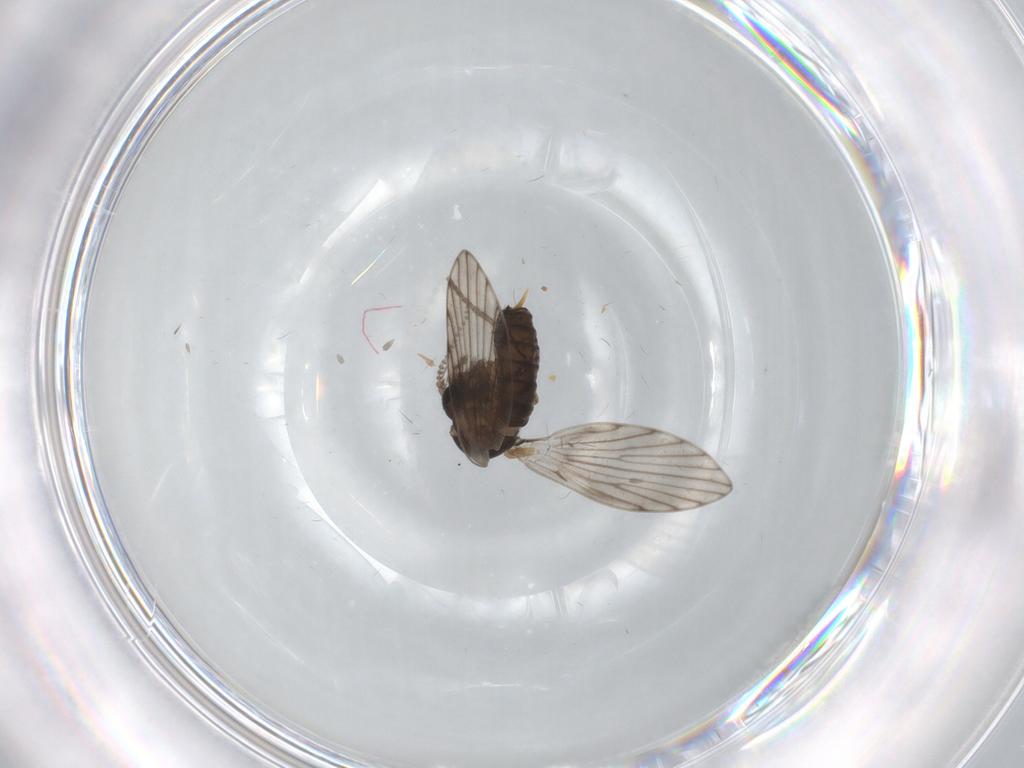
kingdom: Animalia
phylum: Arthropoda
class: Insecta
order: Diptera
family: Psychodidae
